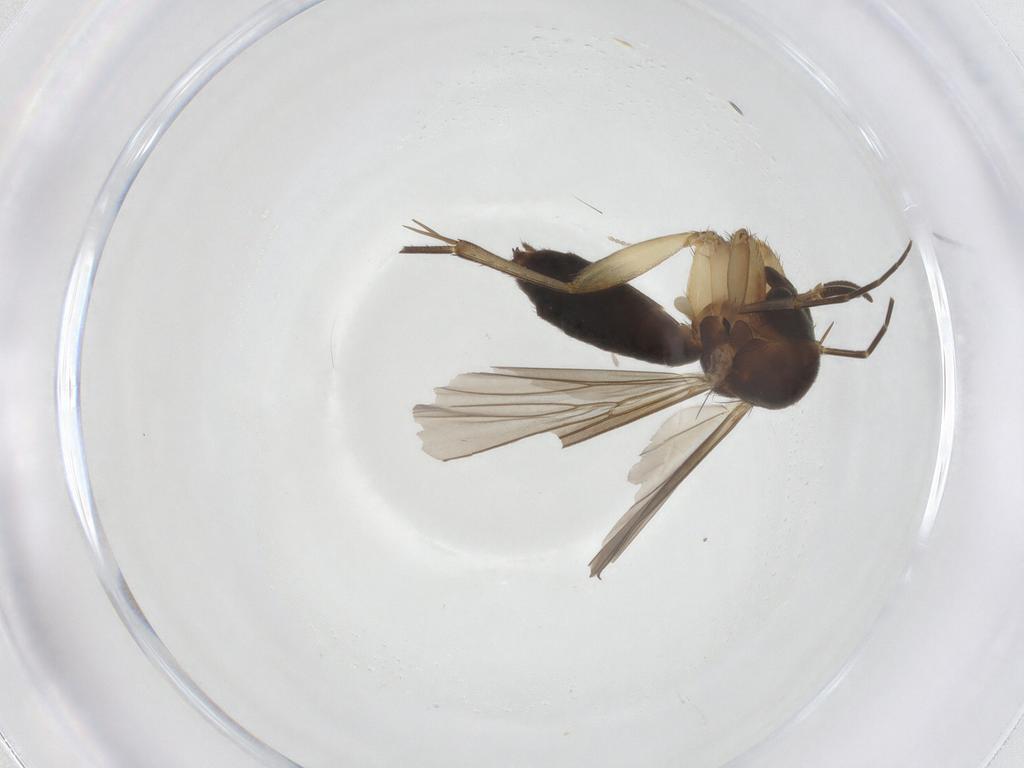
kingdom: Animalia
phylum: Arthropoda
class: Insecta
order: Diptera
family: Mycetophilidae
